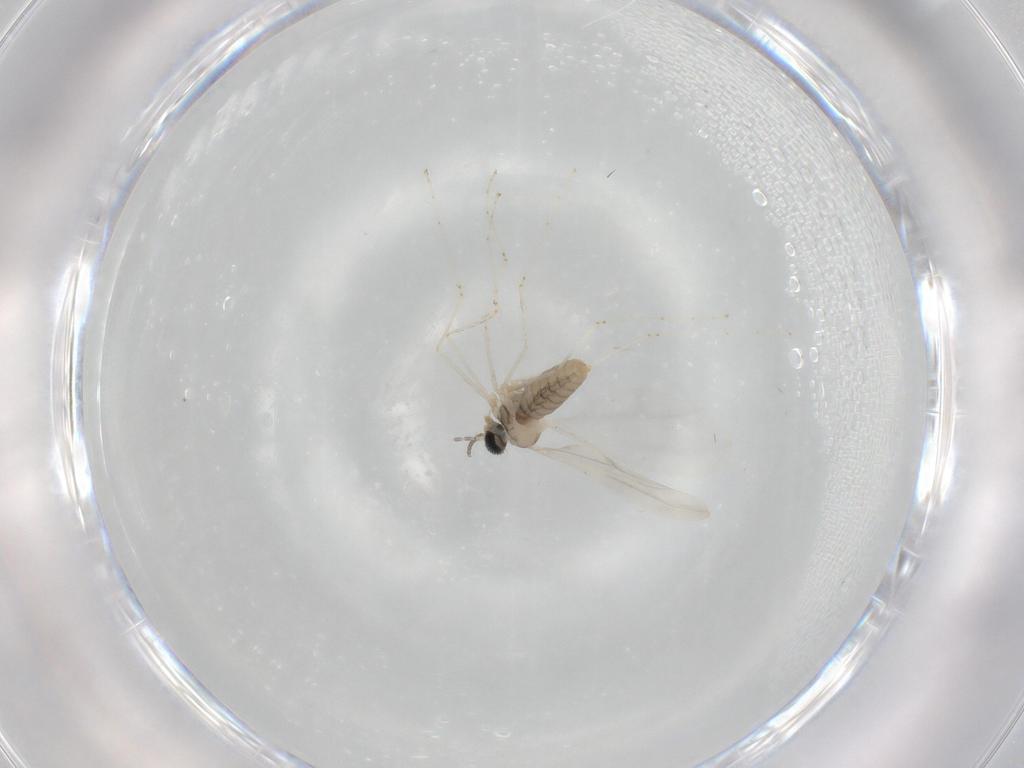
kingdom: Animalia
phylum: Arthropoda
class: Insecta
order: Diptera
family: Cecidomyiidae
